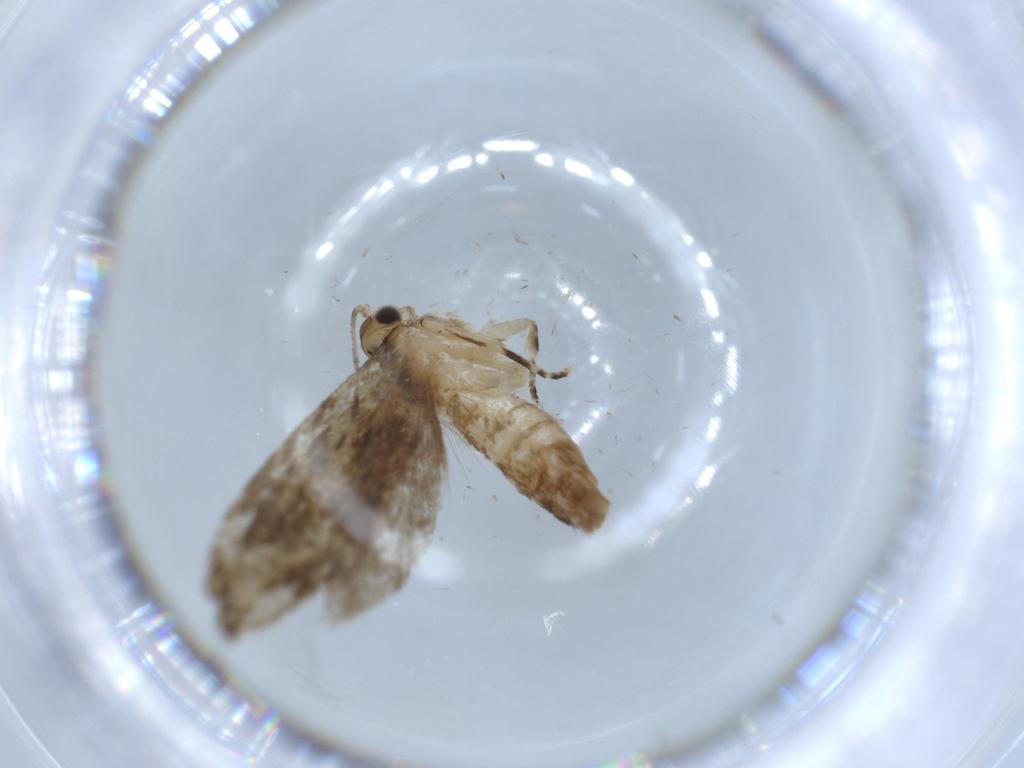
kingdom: Animalia
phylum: Arthropoda
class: Insecta
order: Lepidoptera
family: Tineidae
